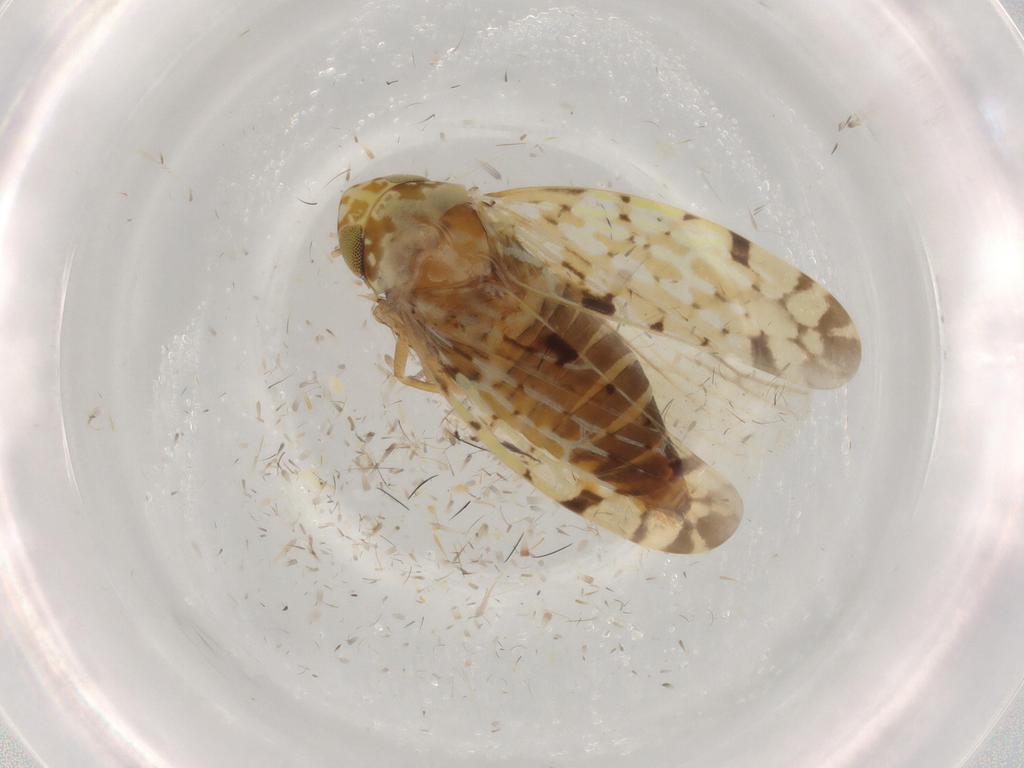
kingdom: Animalia
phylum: Arthropoda
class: Insecta
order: Hemiptera
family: Cicadellidae
